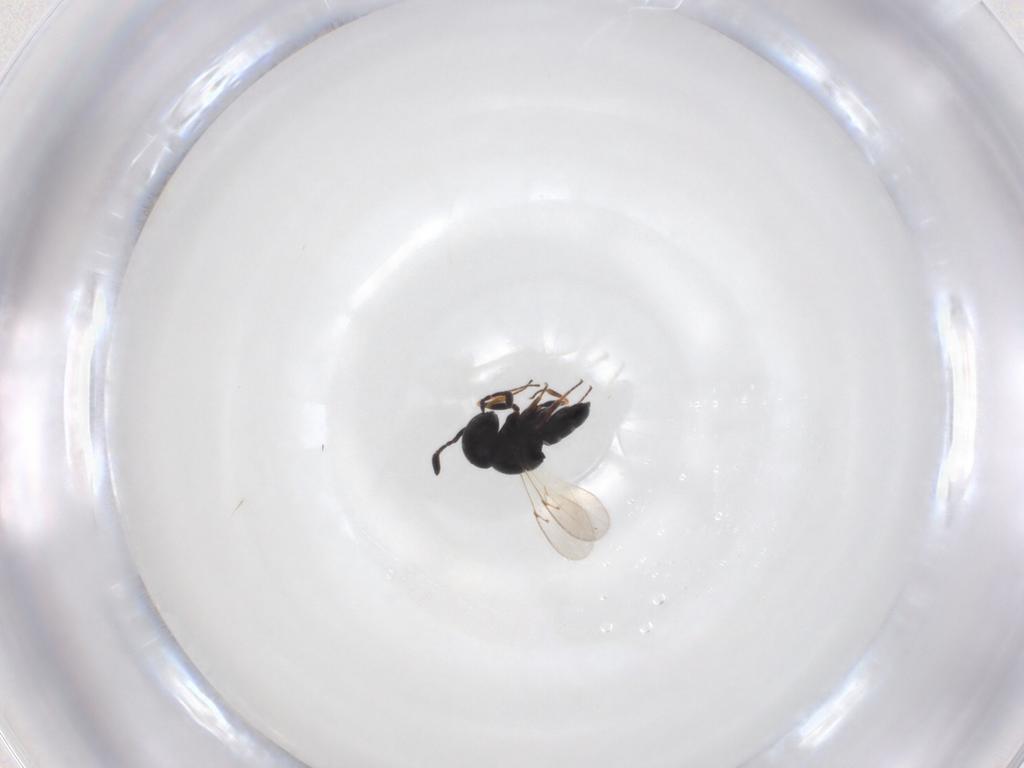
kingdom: Animalia
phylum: Arthropoda
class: Insecta
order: Hymenoptera
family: Scelionidae
